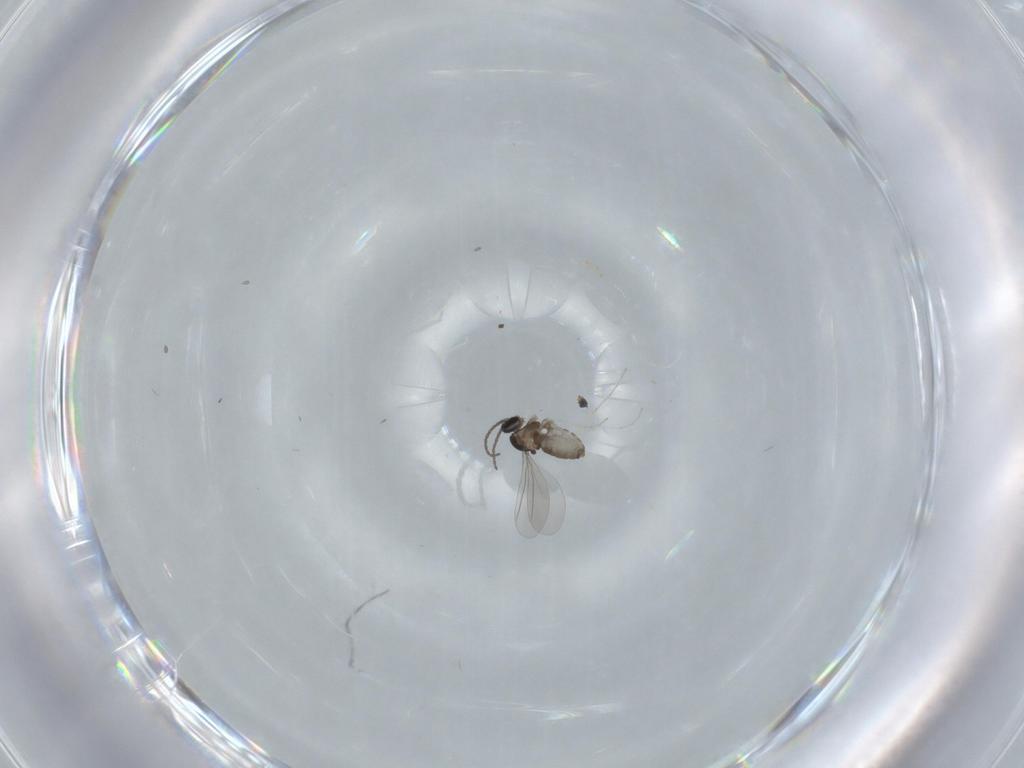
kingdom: Animalia
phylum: Arthropoda
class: Insecta
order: Diptera
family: Cecidomyiidae
